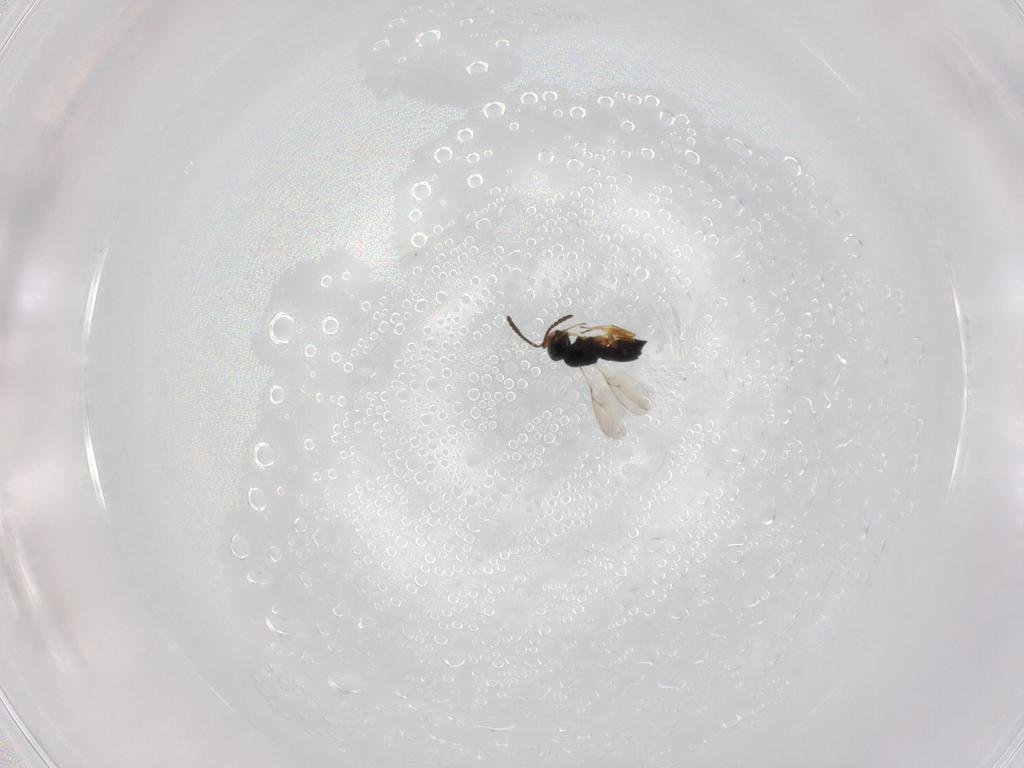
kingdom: Animalia
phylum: Arthropoda
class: Insecta
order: Hymenoptera
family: Scelionidae
